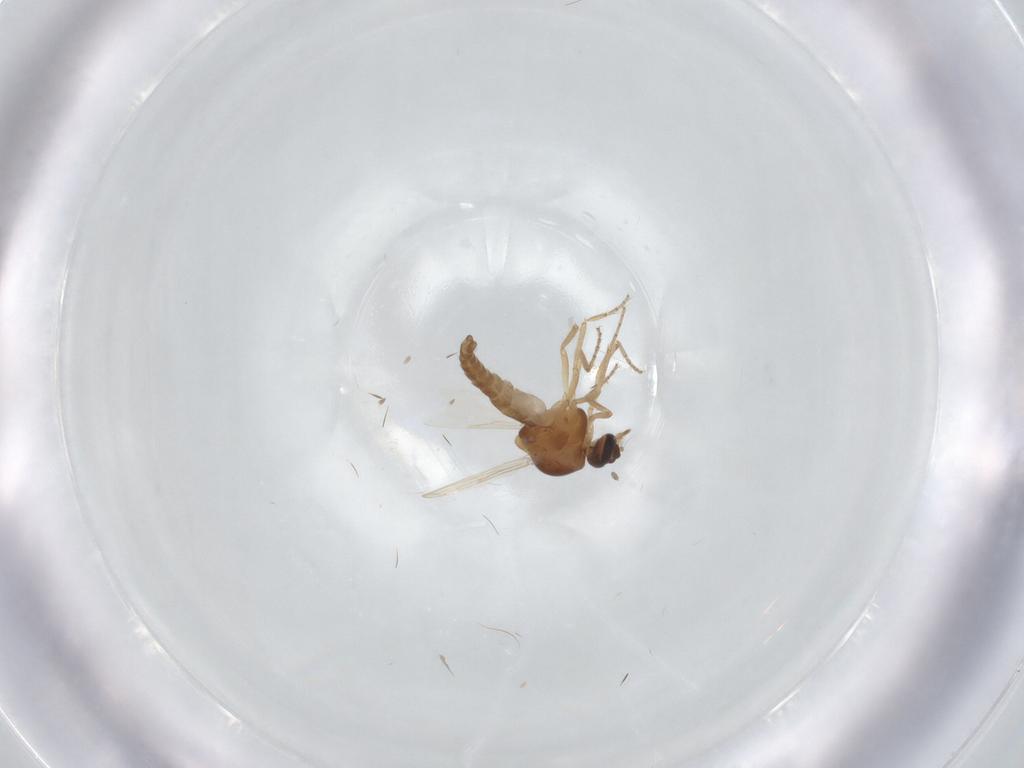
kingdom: Animalia
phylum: Arthropoda
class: Insecta
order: Diptera
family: Ceratopogonidae
